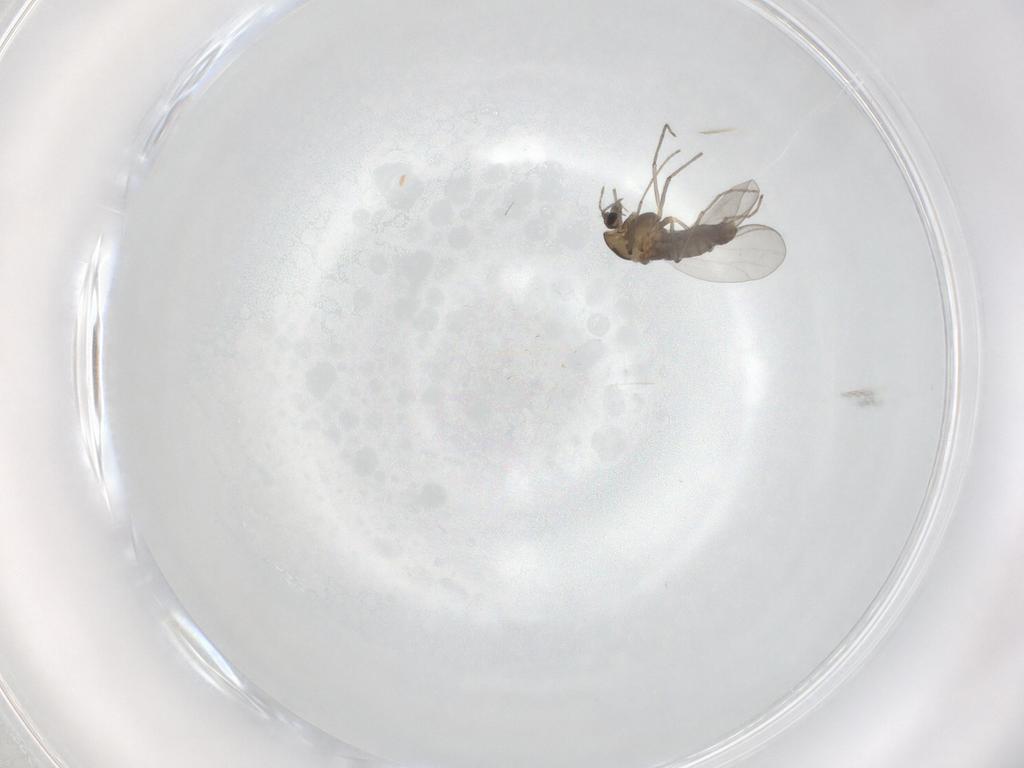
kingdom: Animalia
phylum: Arthropoda
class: Insecta
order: Diptera
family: Chironomidae
